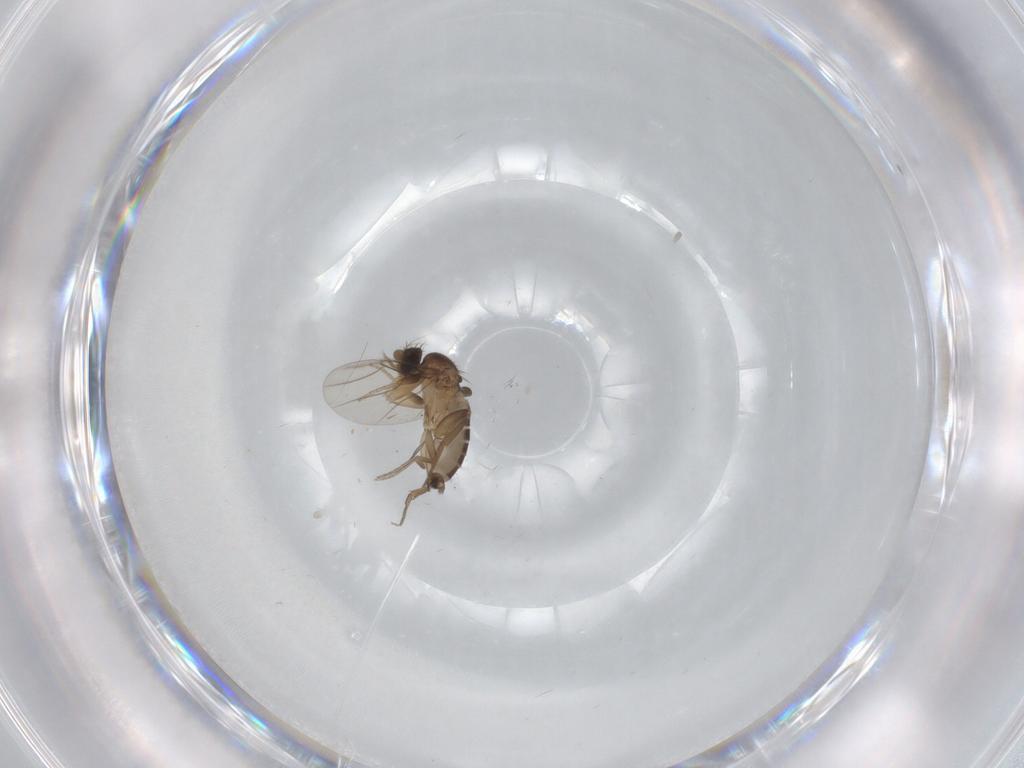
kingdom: Animalia
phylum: Arthropoda
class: Insecta
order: Diptera
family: Phoridae
